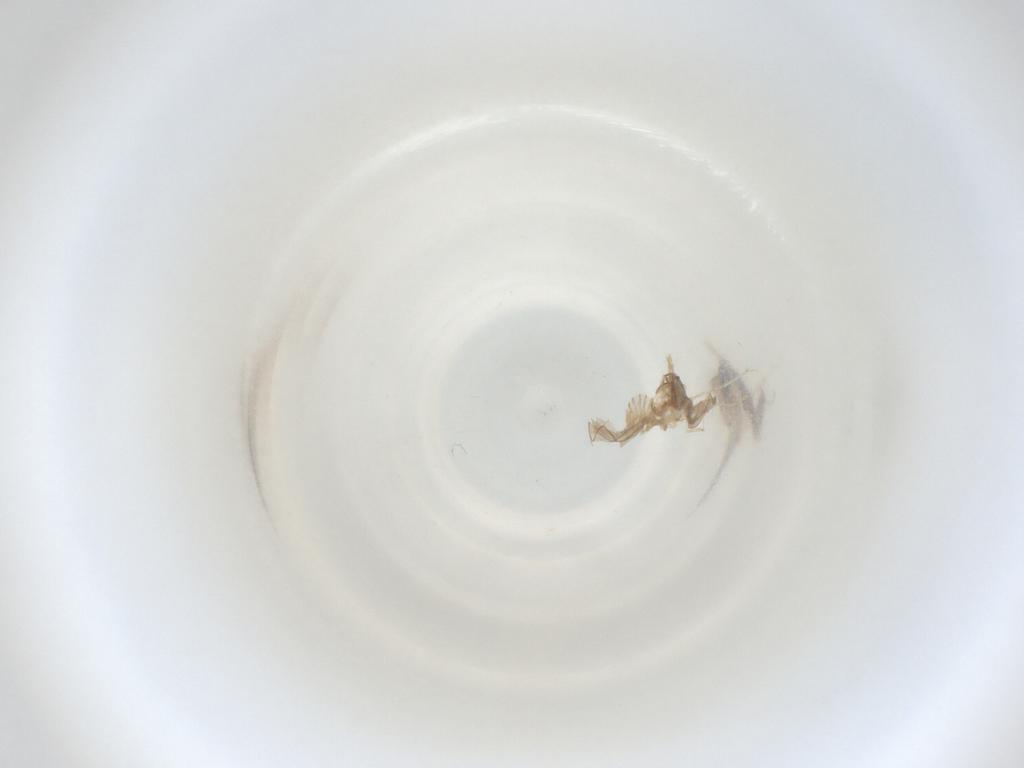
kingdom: Animalia
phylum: Arthropoda
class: Insecta
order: Diptera
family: Cecidomyiidae
